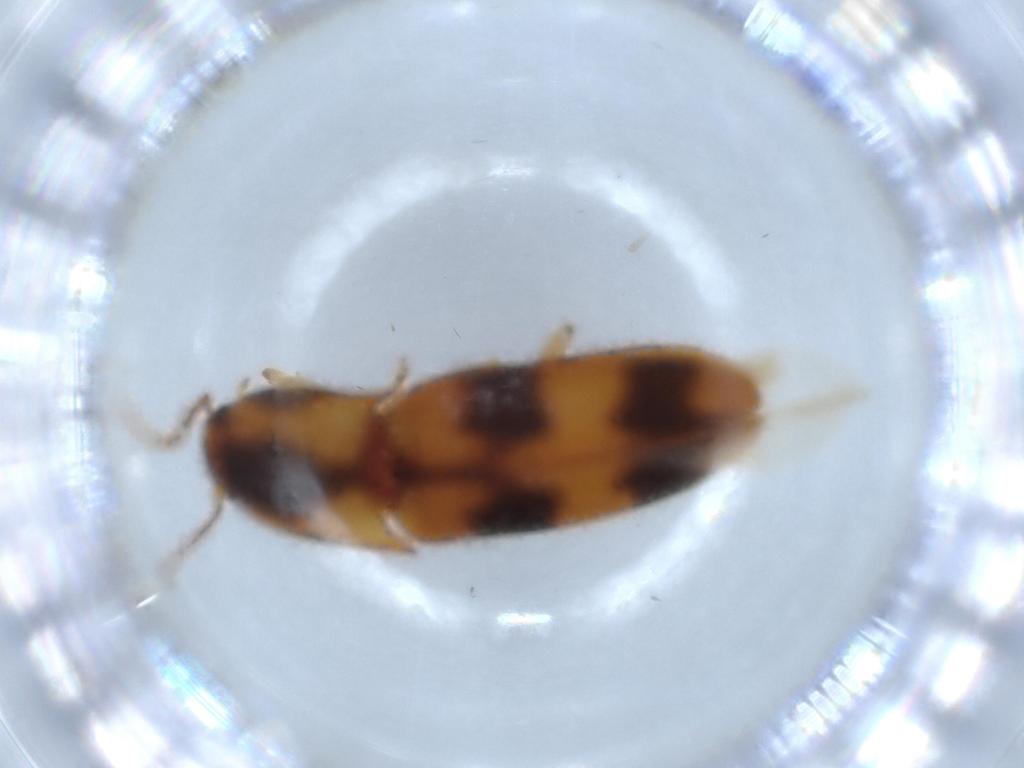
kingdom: Animalia
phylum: Arthropoda
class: Insecta
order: Coleoptera
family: Elateridae
